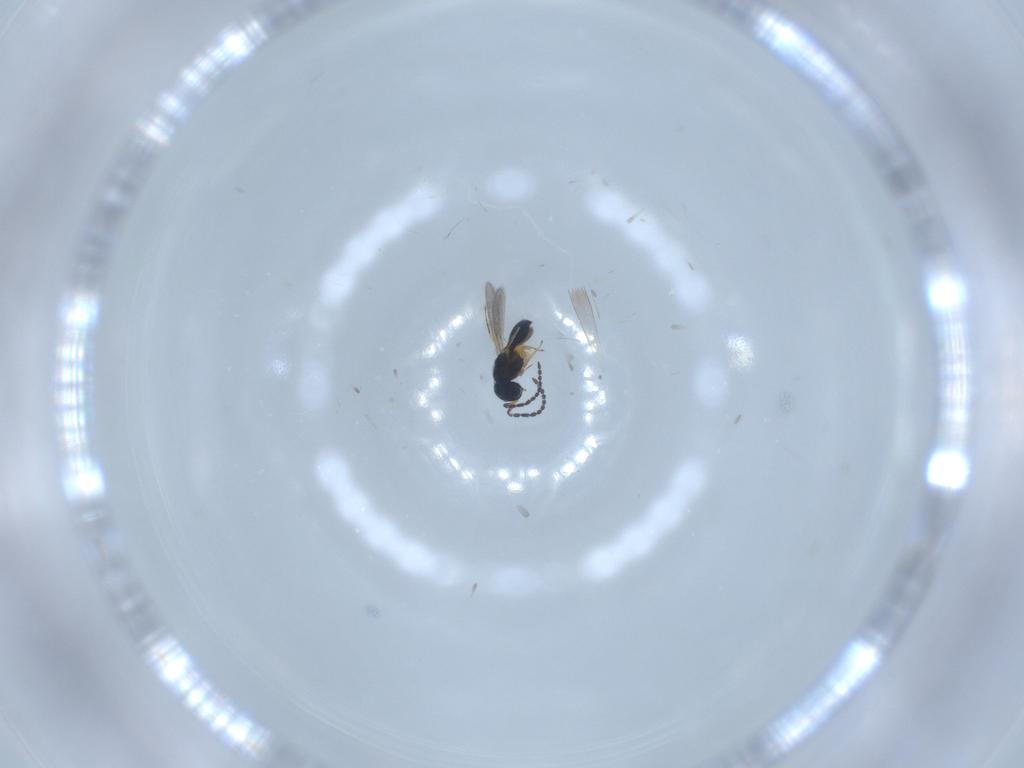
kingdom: Animalia
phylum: Arthropoda
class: Insecta
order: Hymenoptera
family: Scelionidae
